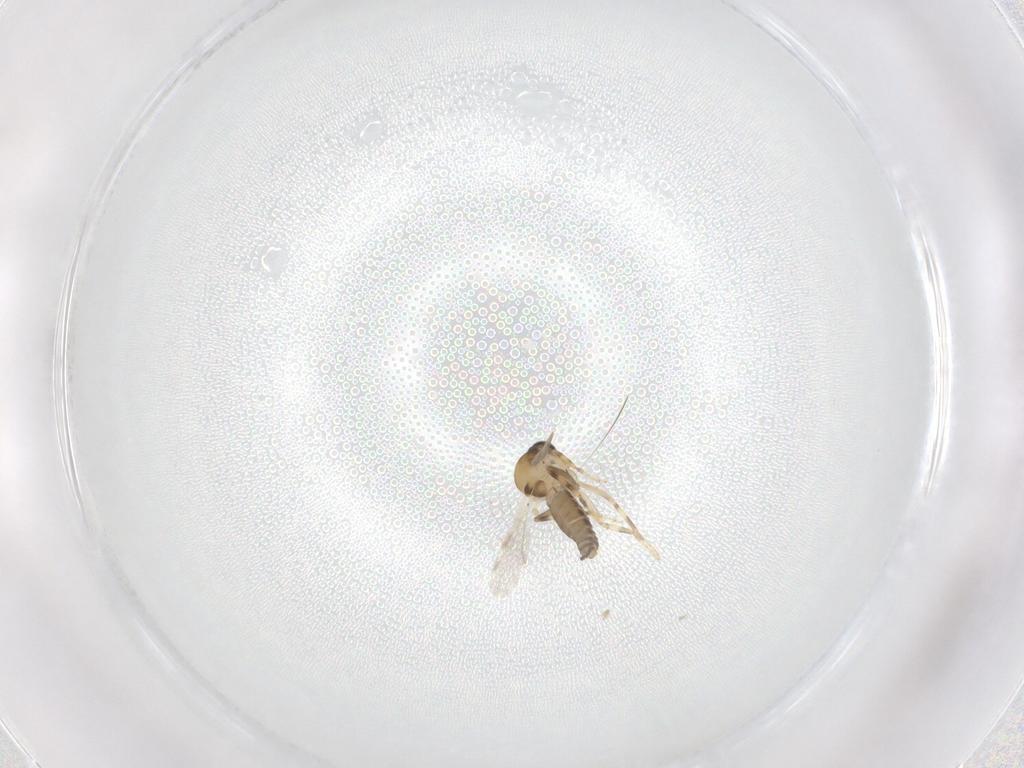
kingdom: Animalia
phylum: Arthropoda
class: Insecta
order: Diptera
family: Ceratopogonidae
